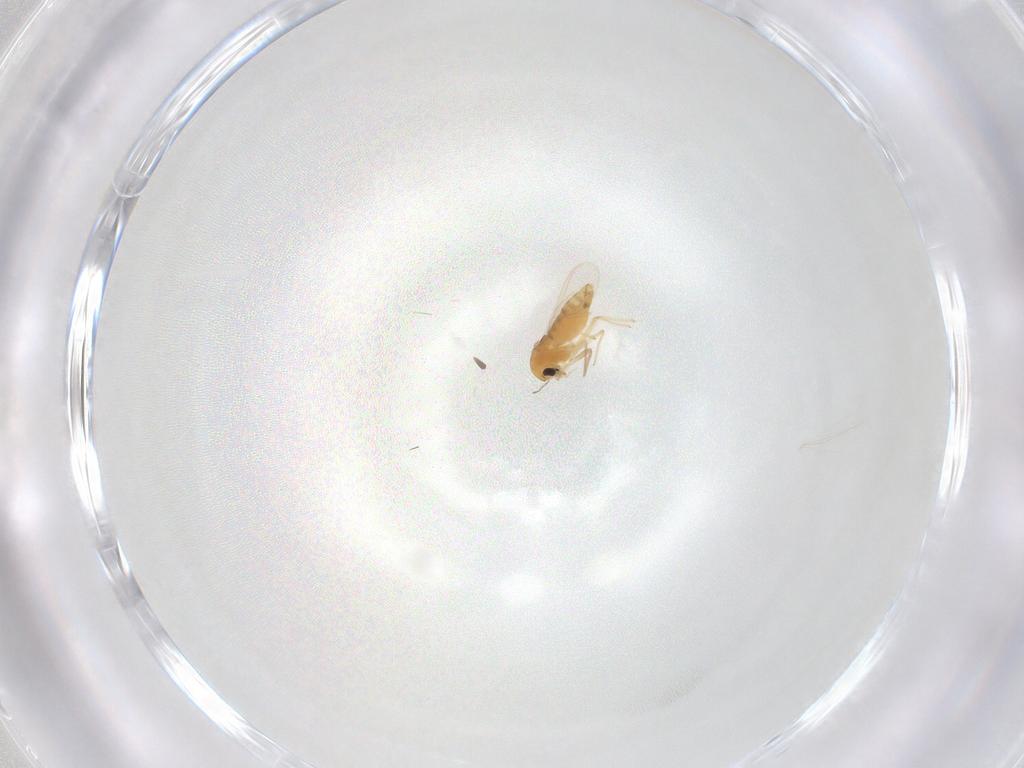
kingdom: Animalia
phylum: Arthropoda
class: Insecta
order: Diptera
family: Chironomidae
